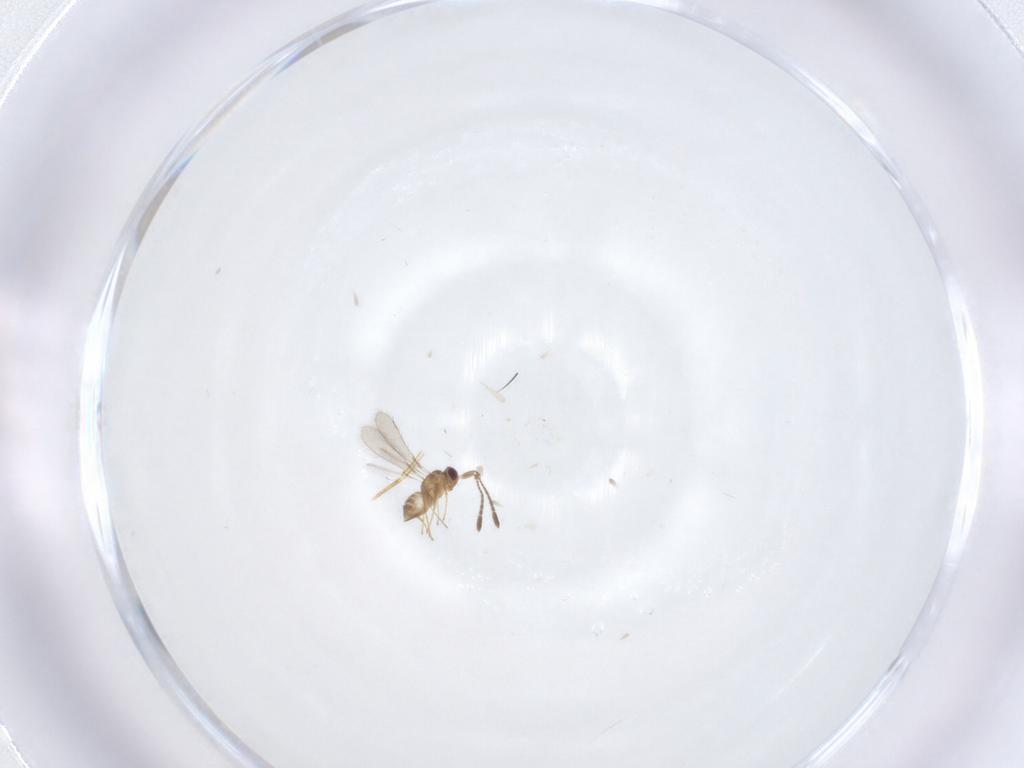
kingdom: Animalia
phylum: Arthropoda
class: Insecta
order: Hymenoptera
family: Mymaridae
